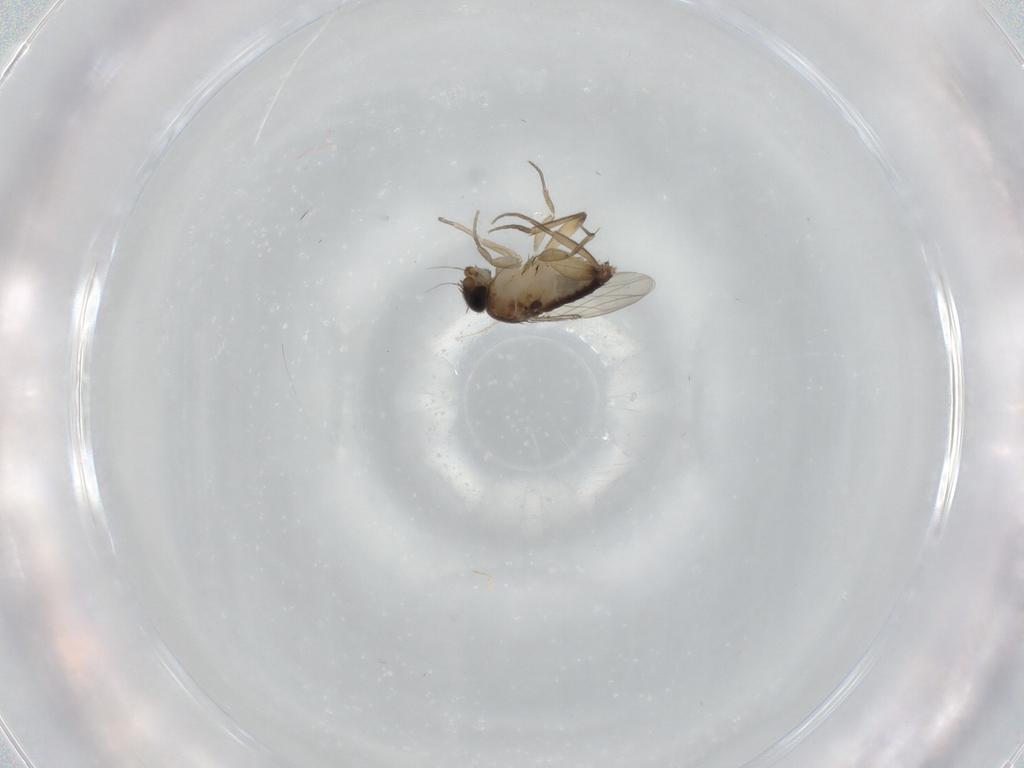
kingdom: Animalia
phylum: Arthropoda
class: Insecta
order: Diptera
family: Phoridae
